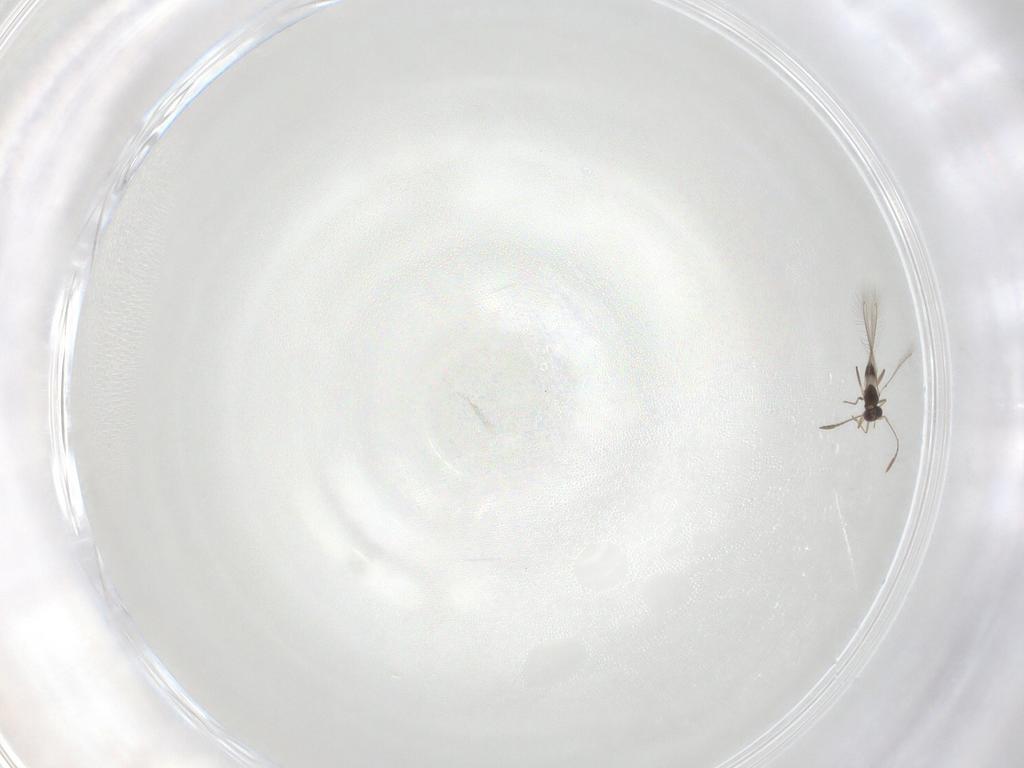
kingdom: Animalia
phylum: Arthropoda
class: Insecta
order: Hymenoptera
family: Mymaridae
